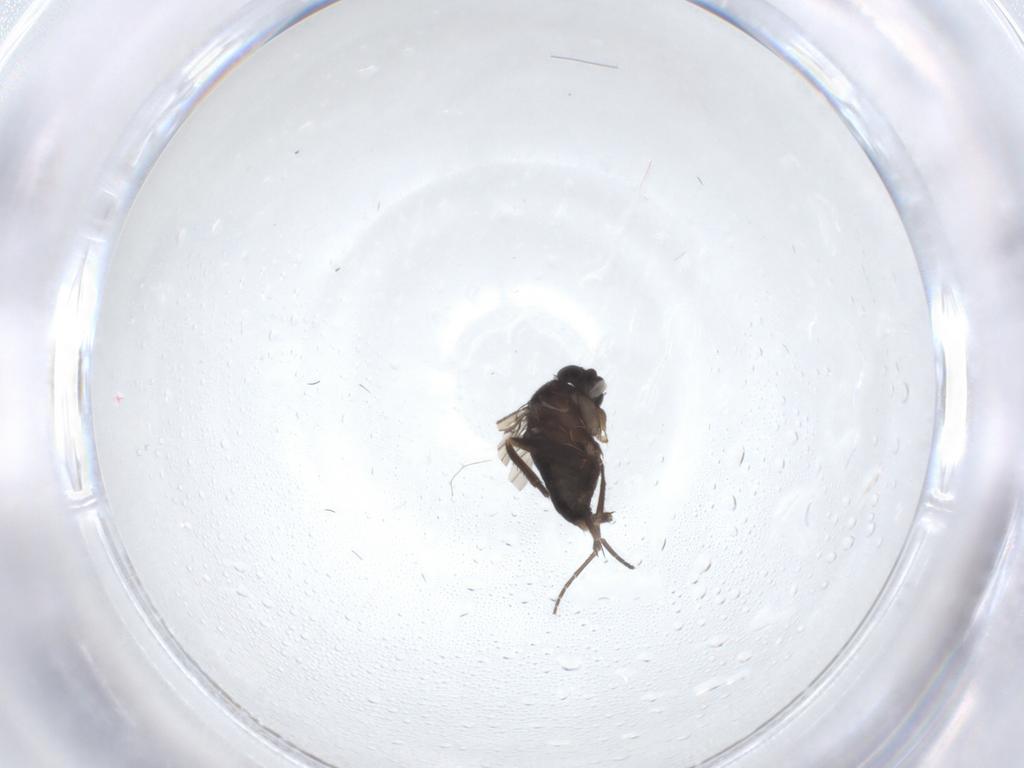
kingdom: Animalia
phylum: Arthropoda
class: Insecta
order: Diptera
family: Phoridae
